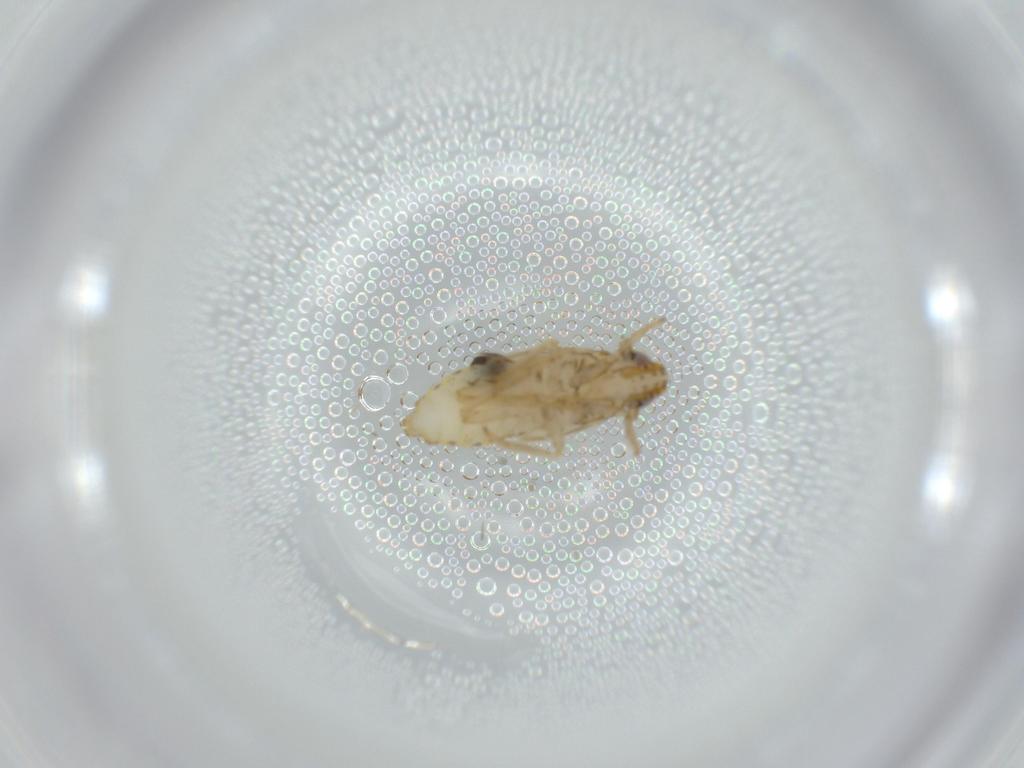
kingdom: Animalia
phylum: Arthropoda
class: Insecta
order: Hemiptera
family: Delphacidae
